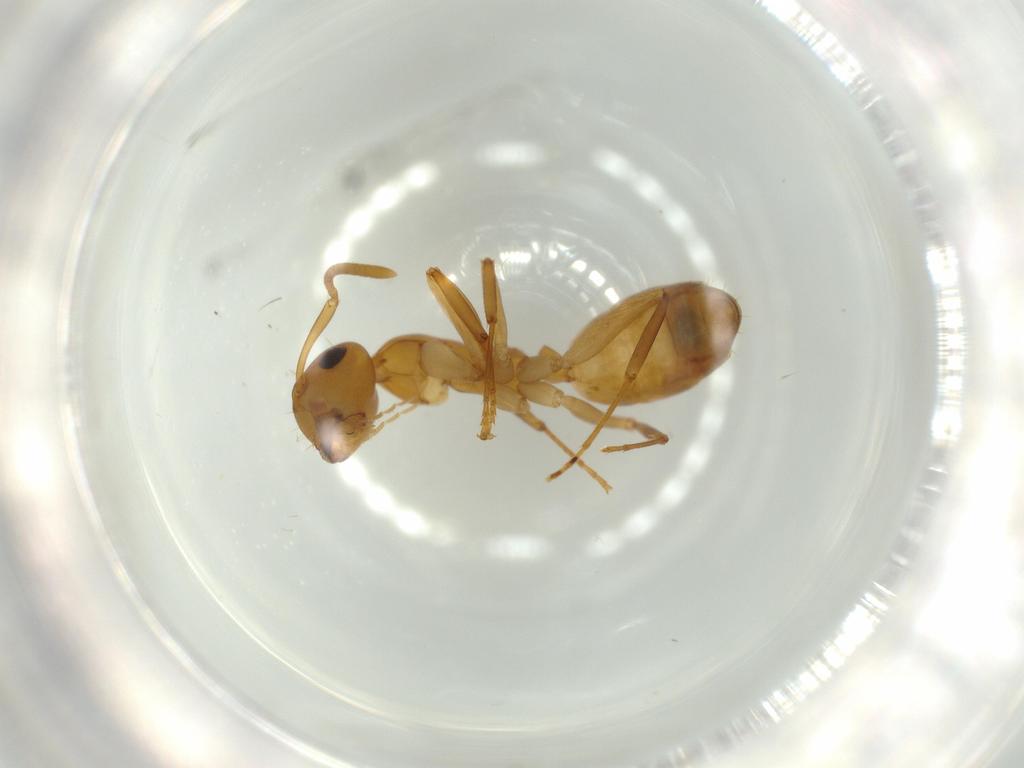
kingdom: Animalia
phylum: Arthropoda
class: Insecta
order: Hymenoptera
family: Formicidae
